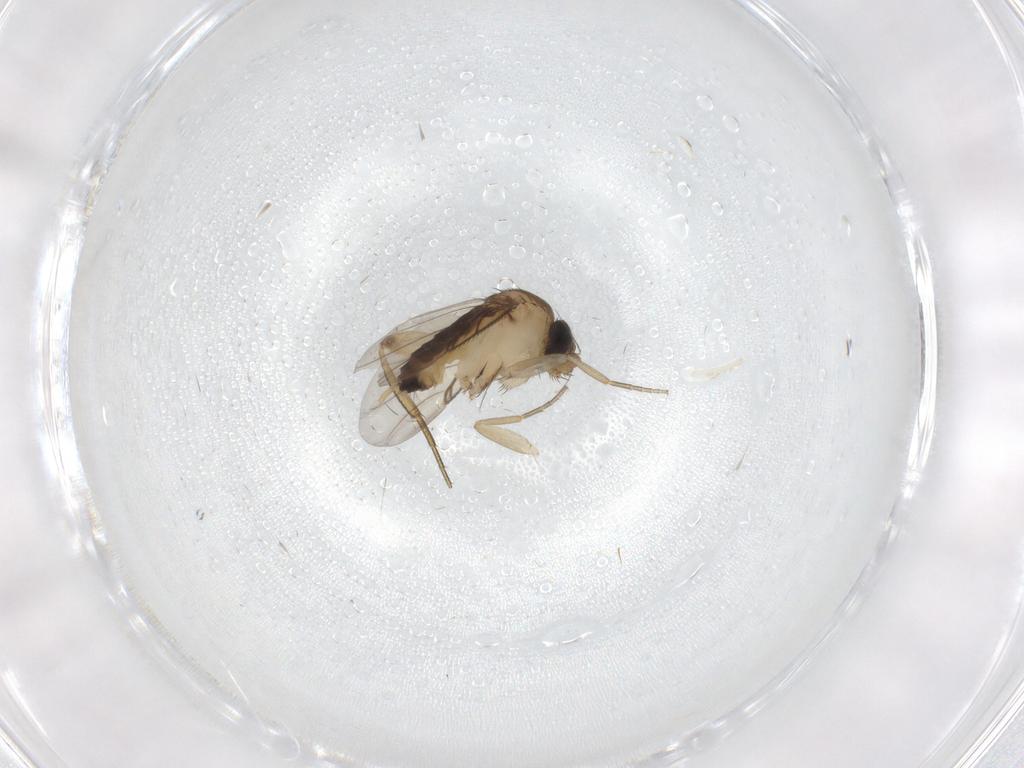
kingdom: Animalia
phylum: Arthropoda
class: Insecta
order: Diptera
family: Phoridae
